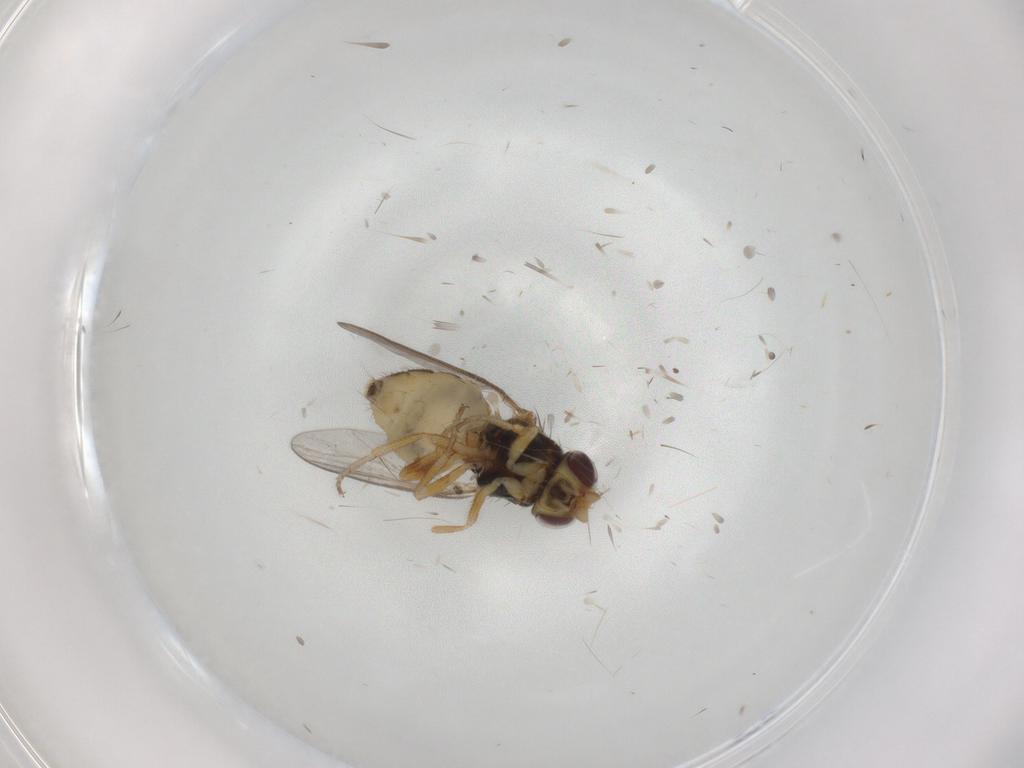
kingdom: Animalia
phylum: Arthropoda
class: Insecta
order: Diptera
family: Chloropidae
